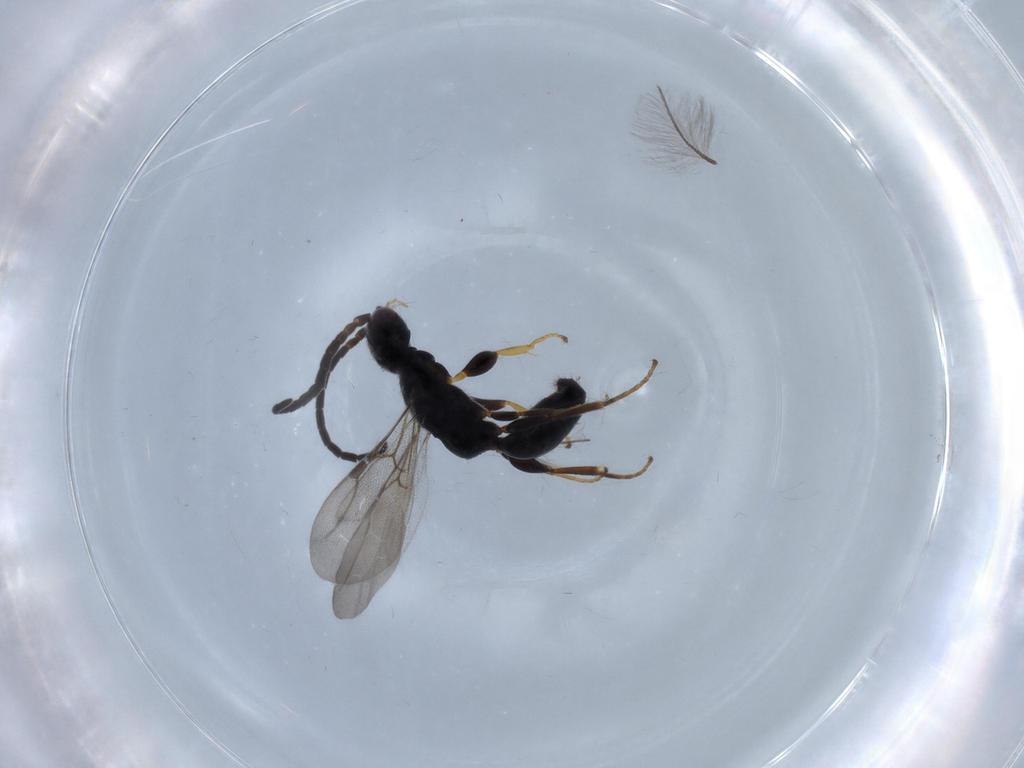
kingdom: Animalia
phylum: Arthropoda
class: Insecta
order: Hymenoptera
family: Bethylidae
